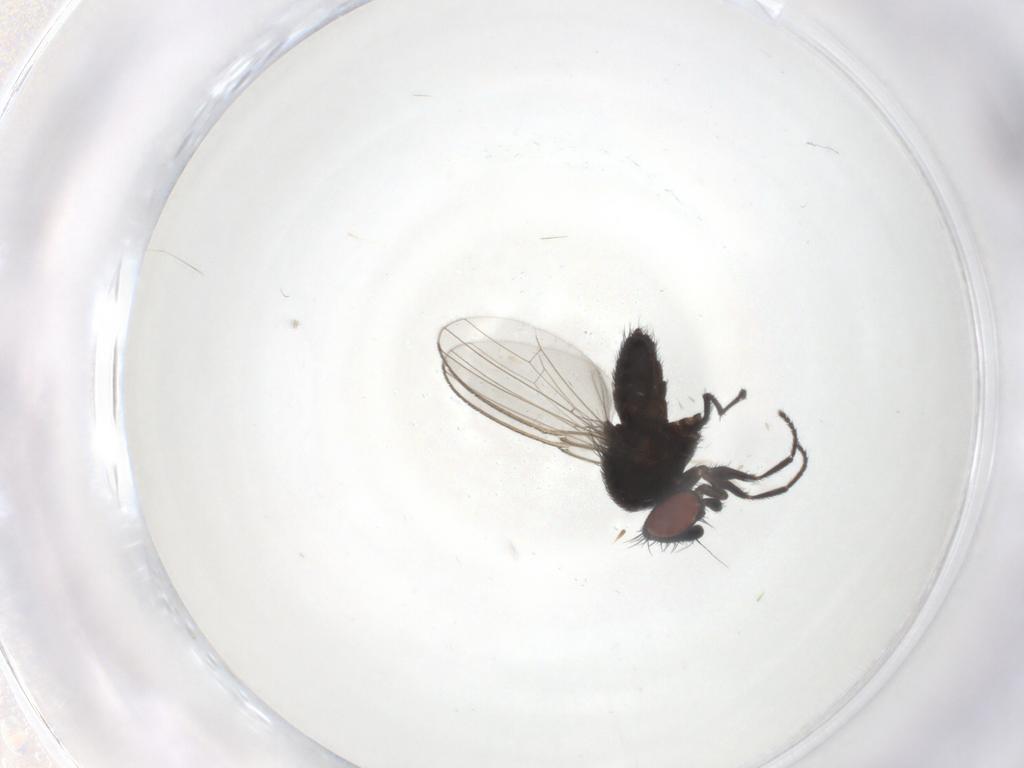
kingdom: Animalia
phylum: Arthropoda
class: Insecta
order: Diptera
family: Milichiidae
